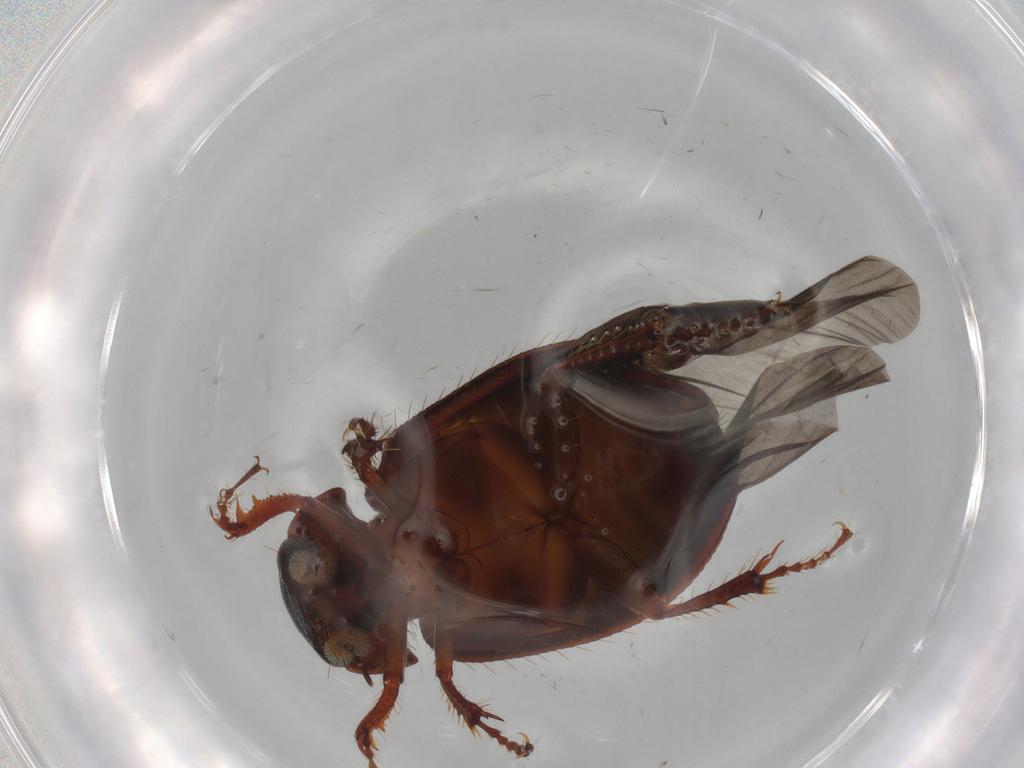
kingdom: Animalia
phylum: Arthropoda
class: Insecta
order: Coleoptera
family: Hybosoridae
